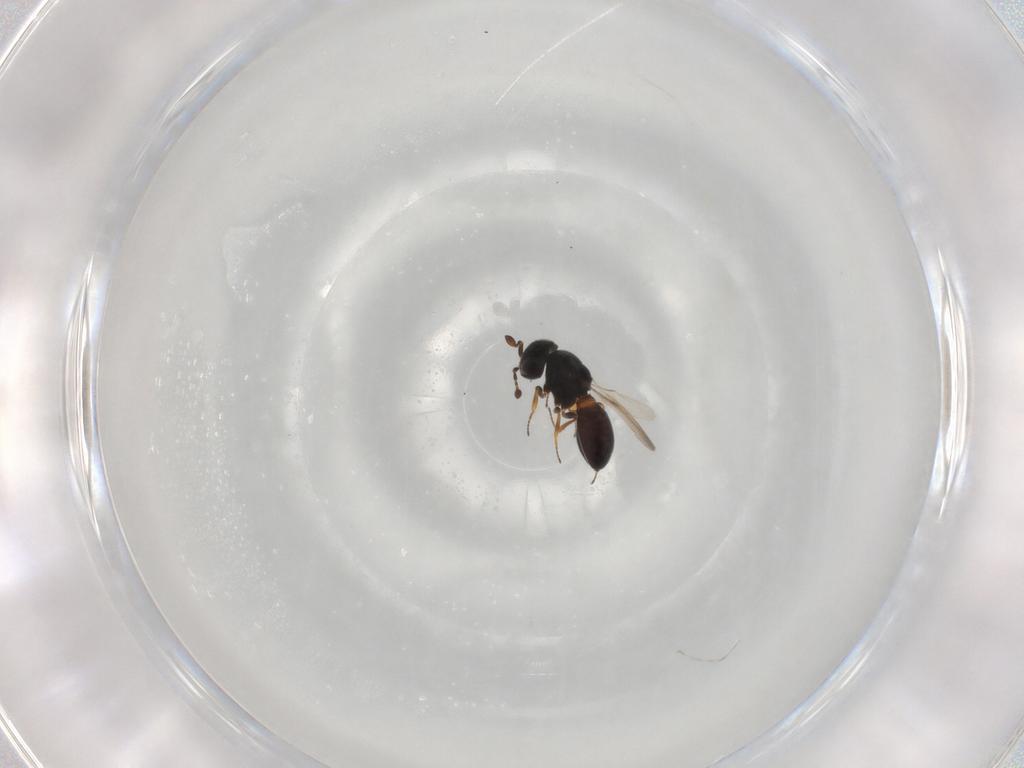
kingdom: Animalia
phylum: Arthropoda
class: Insecta
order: Hymenoptera
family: Scelionidae
